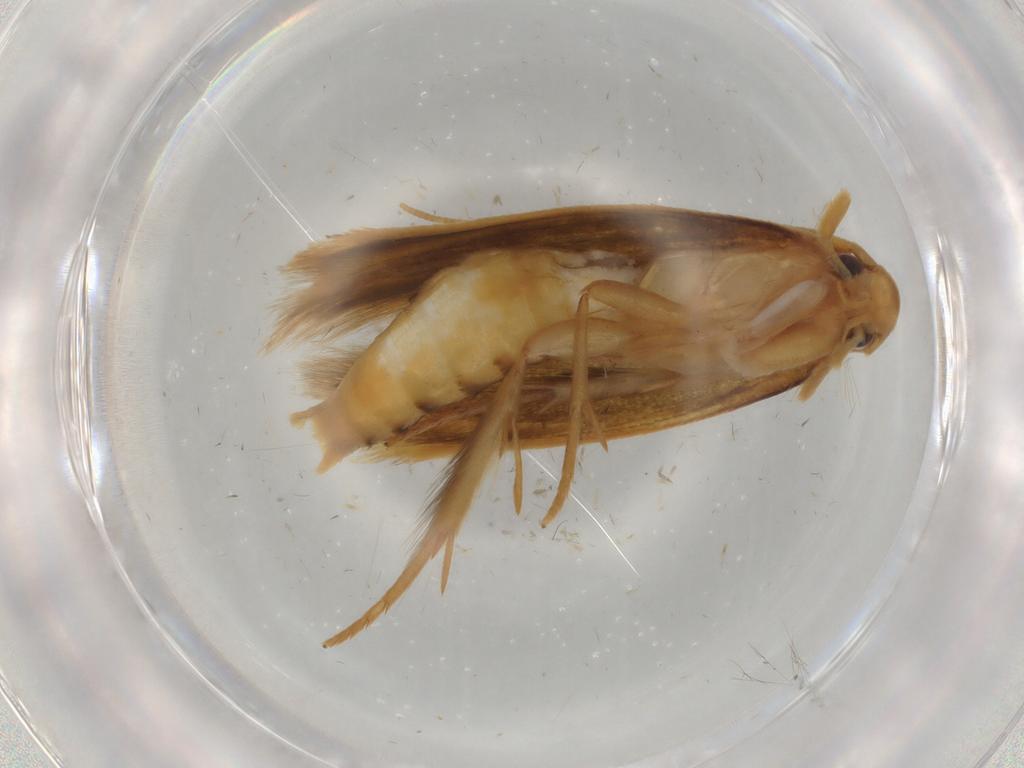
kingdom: Animalia
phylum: Arthropoda
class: Insecta
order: Lepidoptera
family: Tineidae
